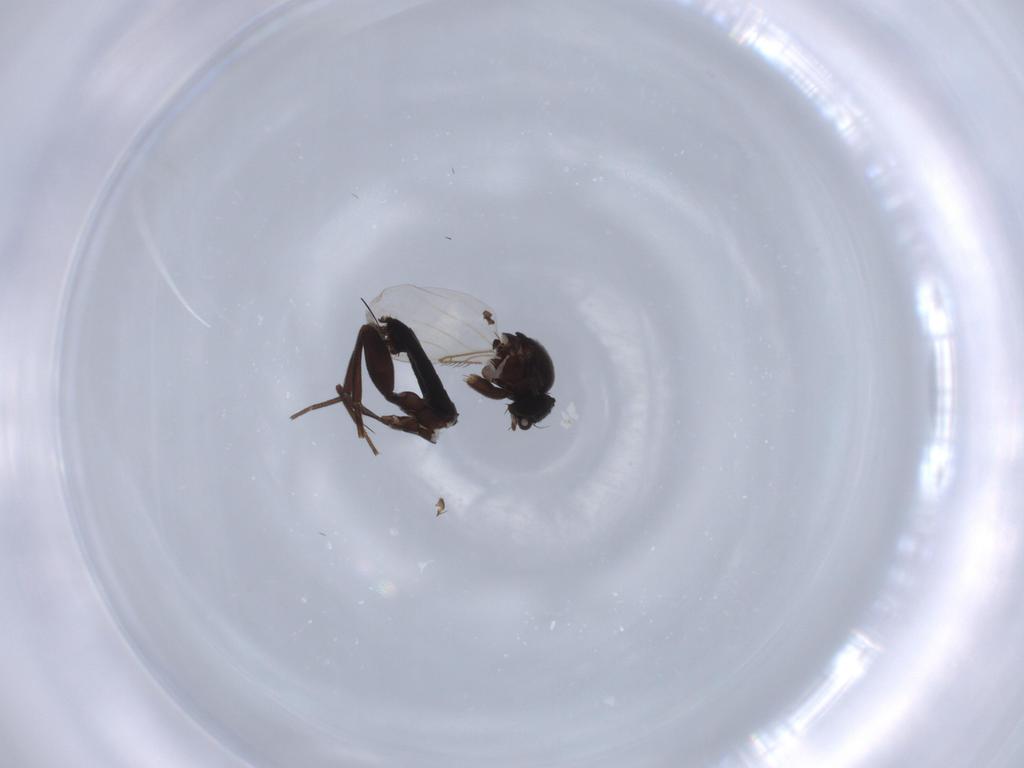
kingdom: Animalia
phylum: Arthropoda
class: Insecta
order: Diptera
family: Phoridae
